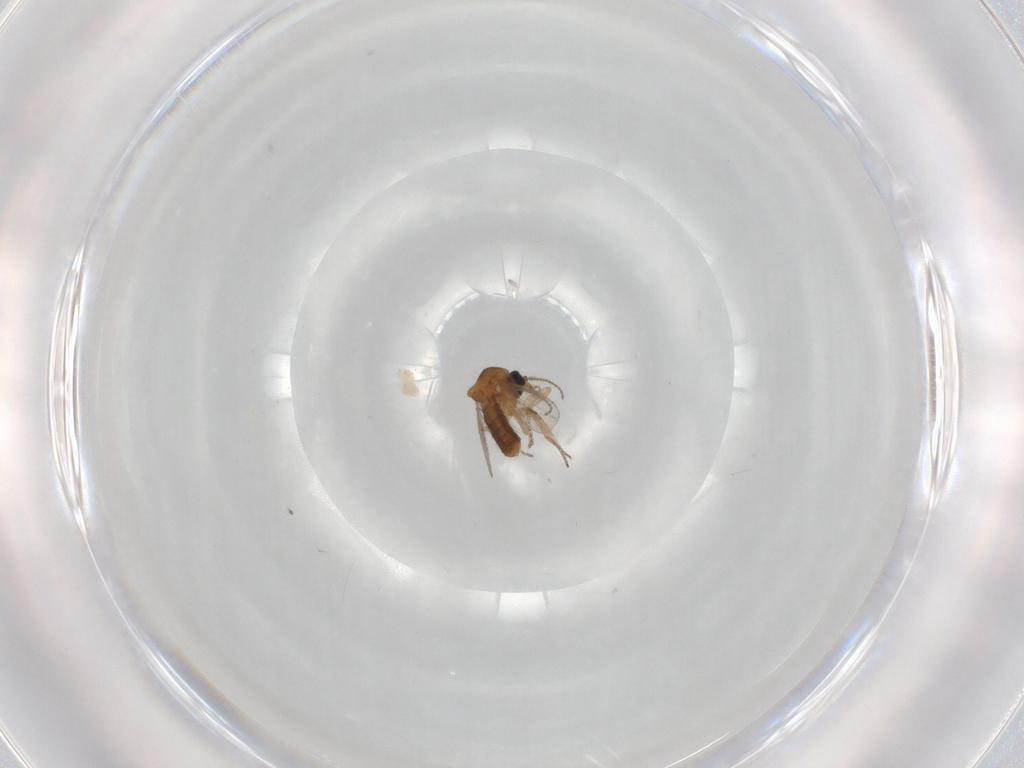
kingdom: Animalia
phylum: Arthropoda
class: Insecta
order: Diptera
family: Ceratopogonidae
